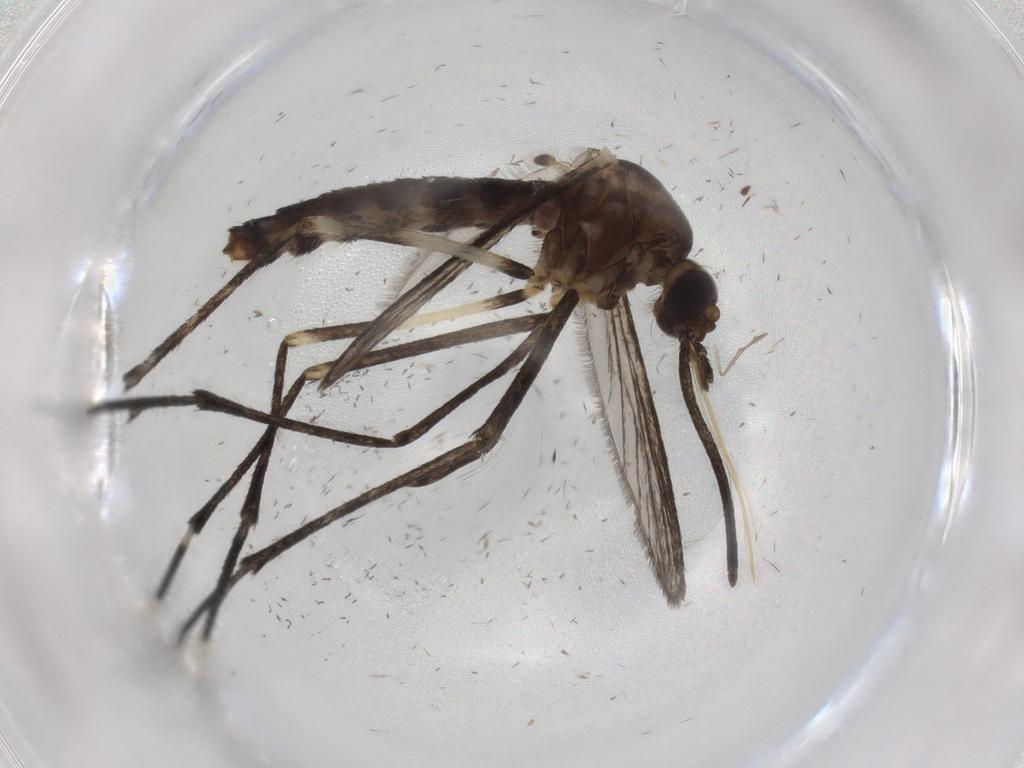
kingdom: Animalia
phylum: Arthropoda
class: Insecta
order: Diptera
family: Phoridae
